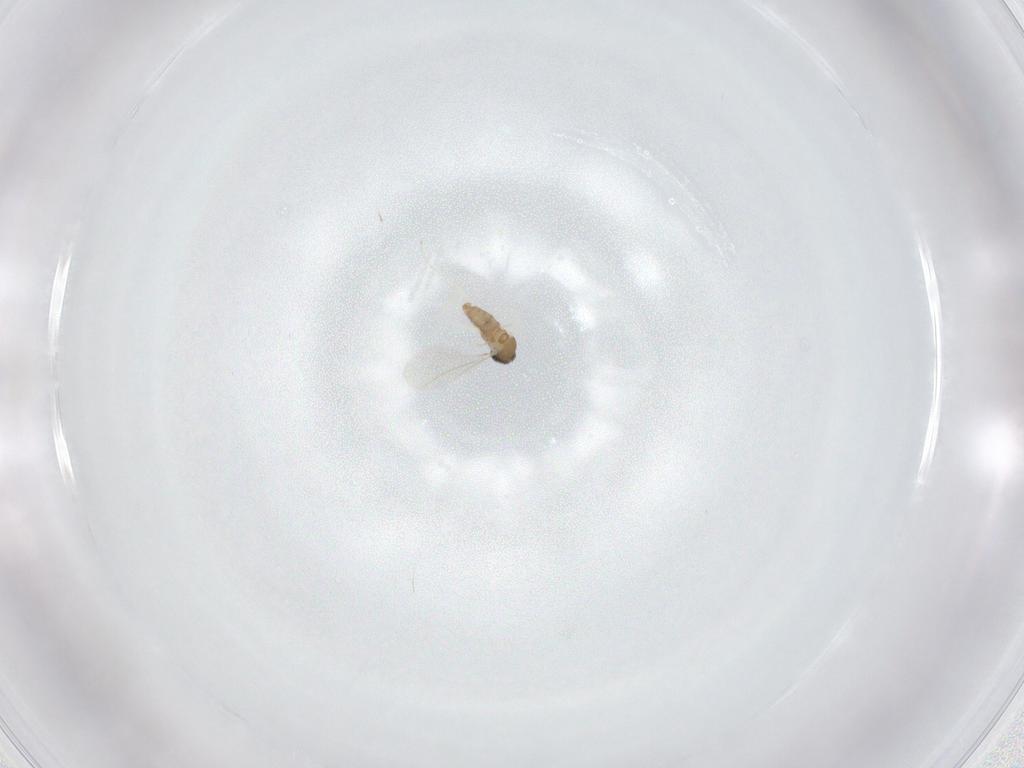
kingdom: Animalia
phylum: Arthropoda
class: Insecta
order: Diptera
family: Cecidomyiidae
